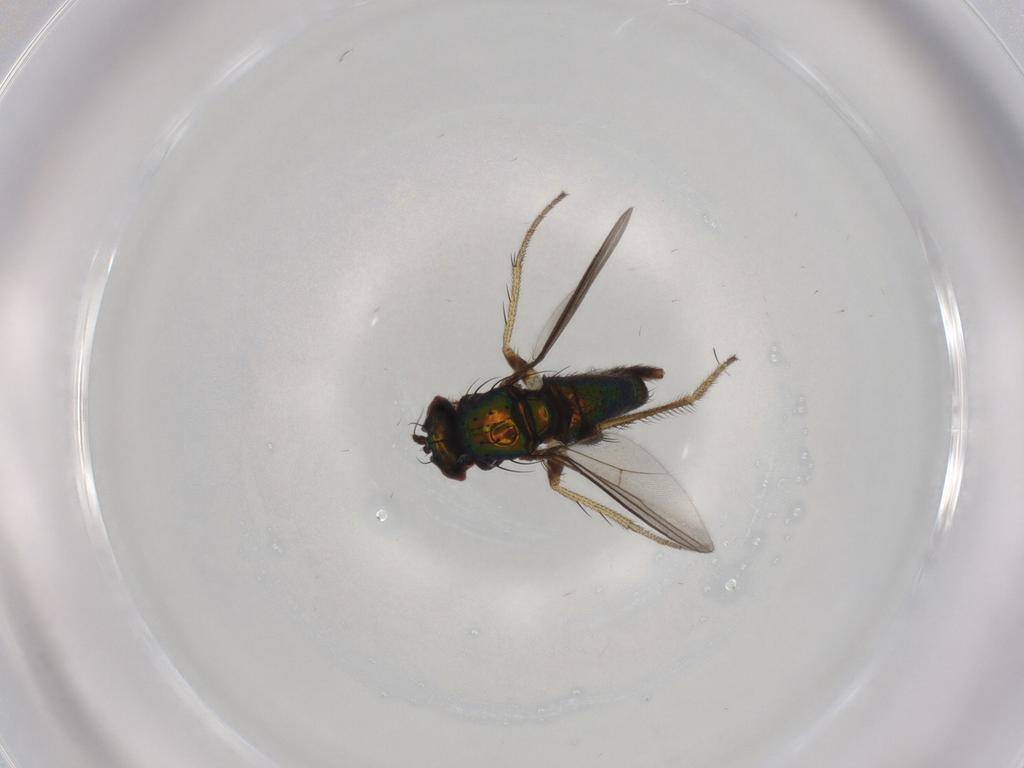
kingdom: Animalia
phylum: Arthropoda
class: Insecta
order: Diptera
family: Dolichopodidae
